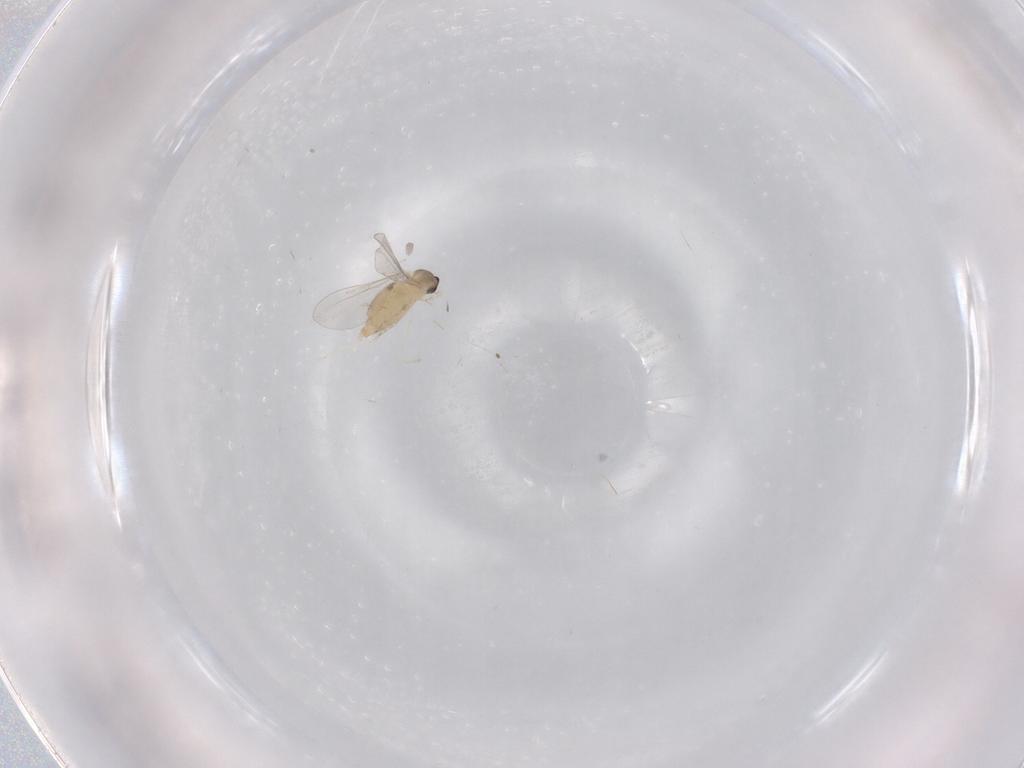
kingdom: Animalia
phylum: Arthropoda
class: Insecta
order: Diptera
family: Cecidomyiidae
